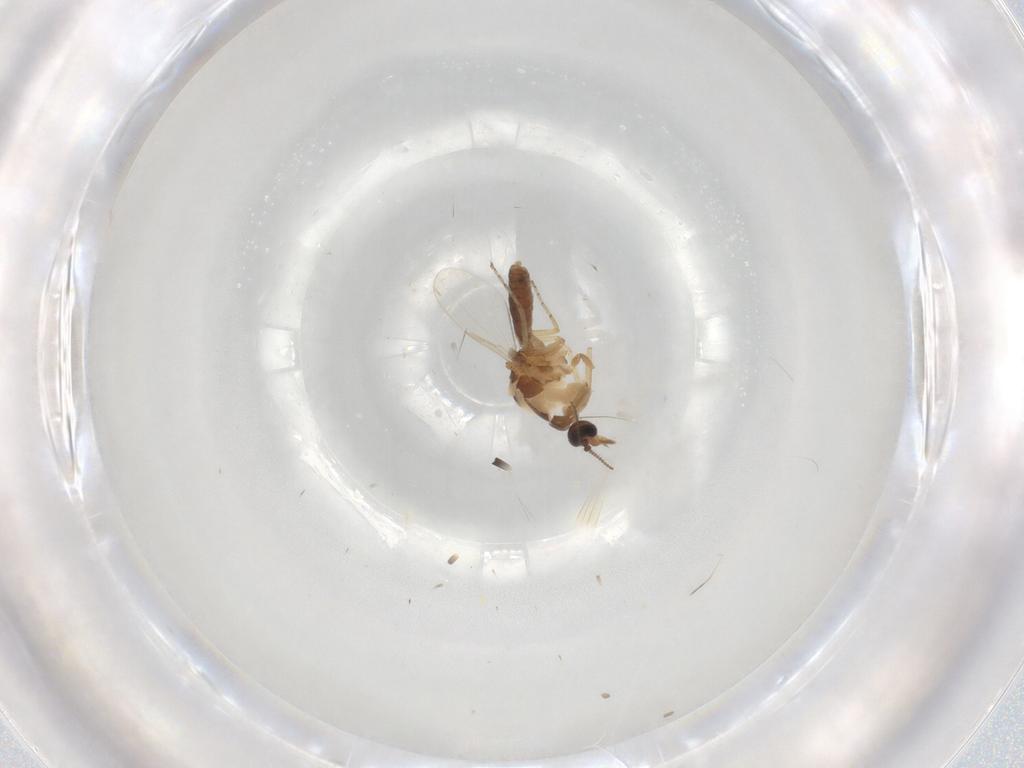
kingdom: Animalia
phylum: Arthropoda
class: Insecta
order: Diptera
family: Ceratopogonidae
